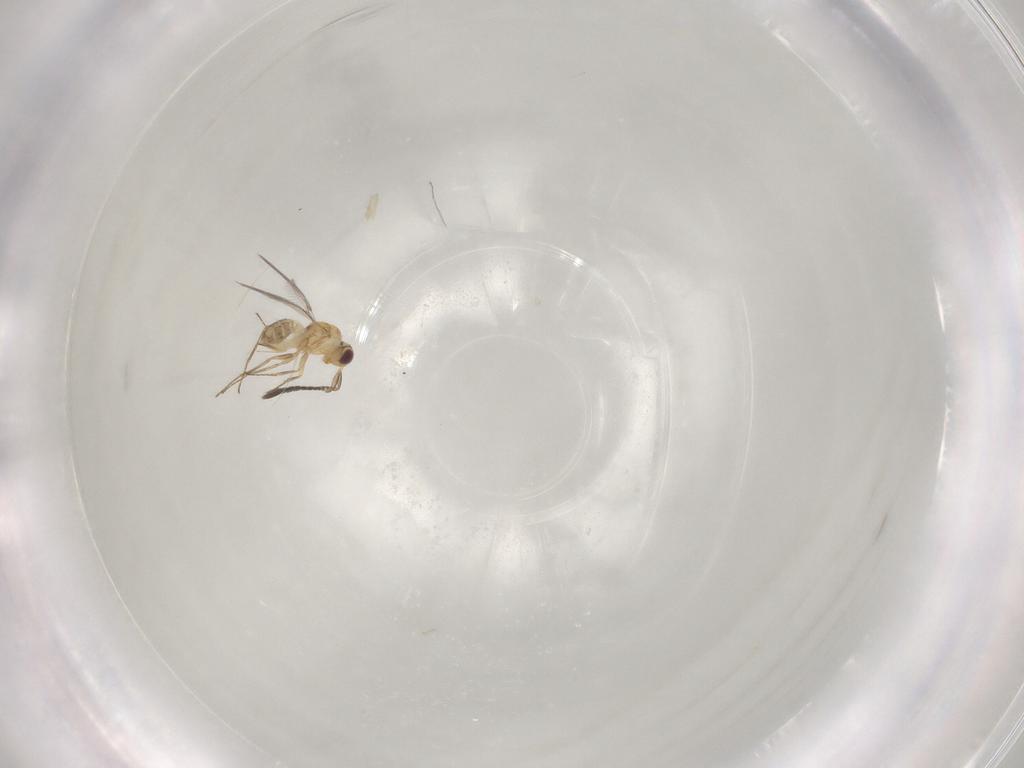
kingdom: Animalia
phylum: Arthropoda
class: Insecta
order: Hymenoptera
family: Mymaridae
